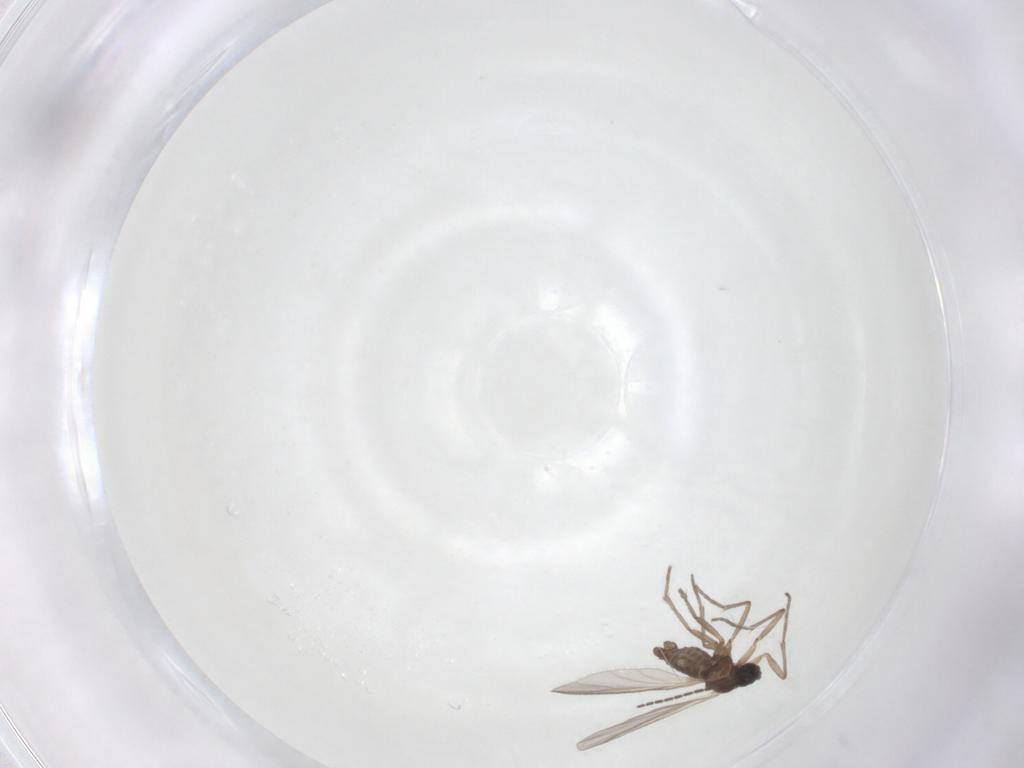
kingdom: Animalia
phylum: Arthropoda
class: Insecta
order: Diptera
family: Sciaridae
